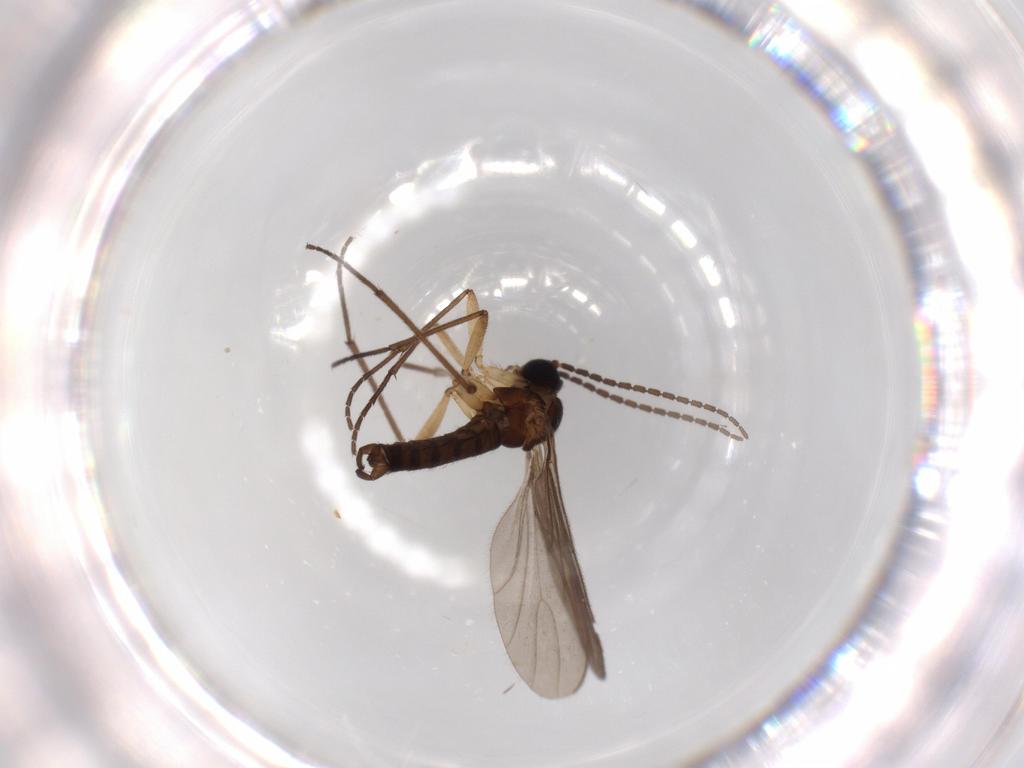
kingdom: Animalia
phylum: Arthropoda
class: Insecta
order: Diptera
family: Sciaridae
